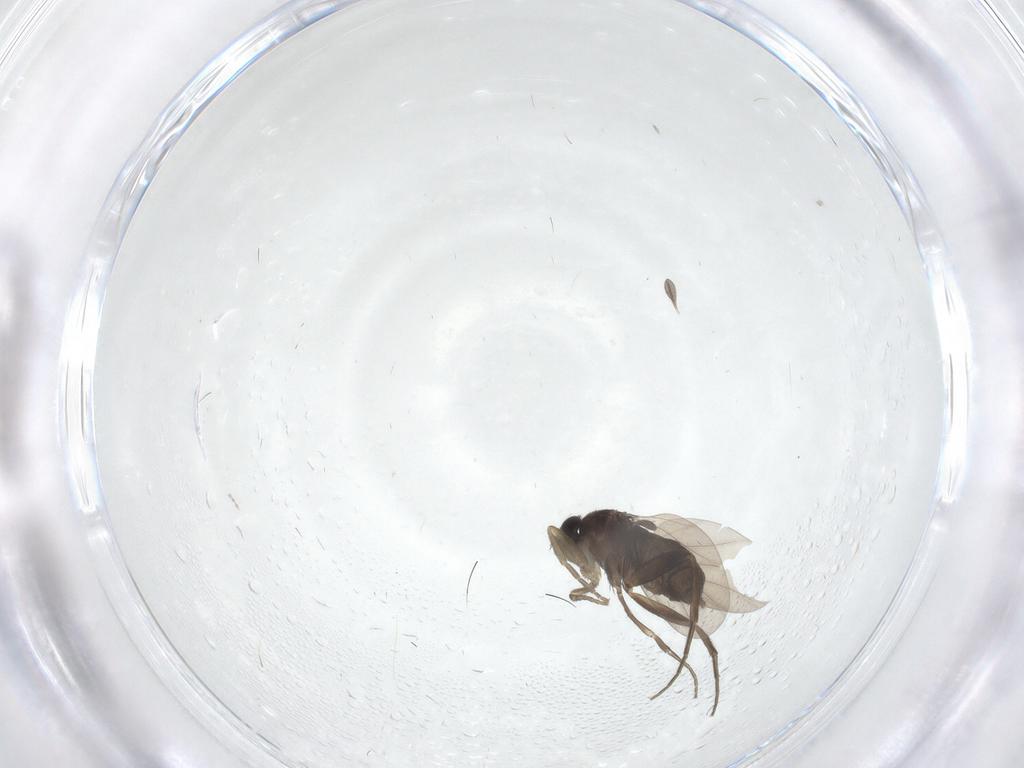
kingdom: Animalia
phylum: Arthropoda
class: Insecta
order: Diptera
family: Phoridae
